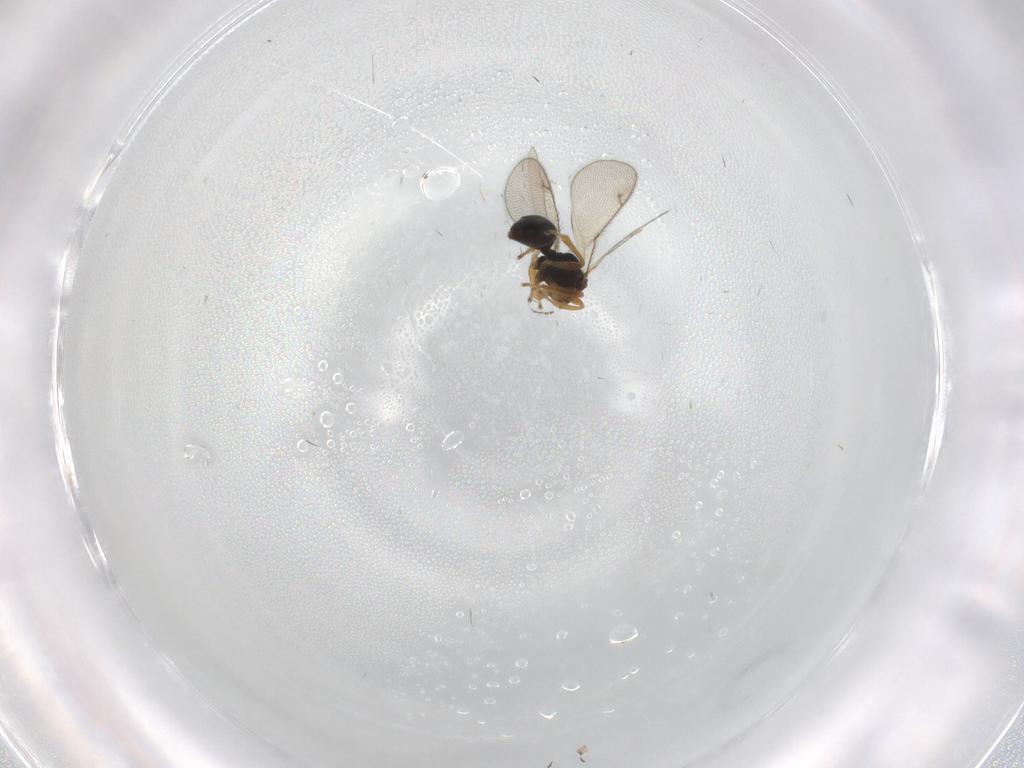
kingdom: Animalia
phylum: Arthropoda
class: Insecta
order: Hymenoptera
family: Diparidae
